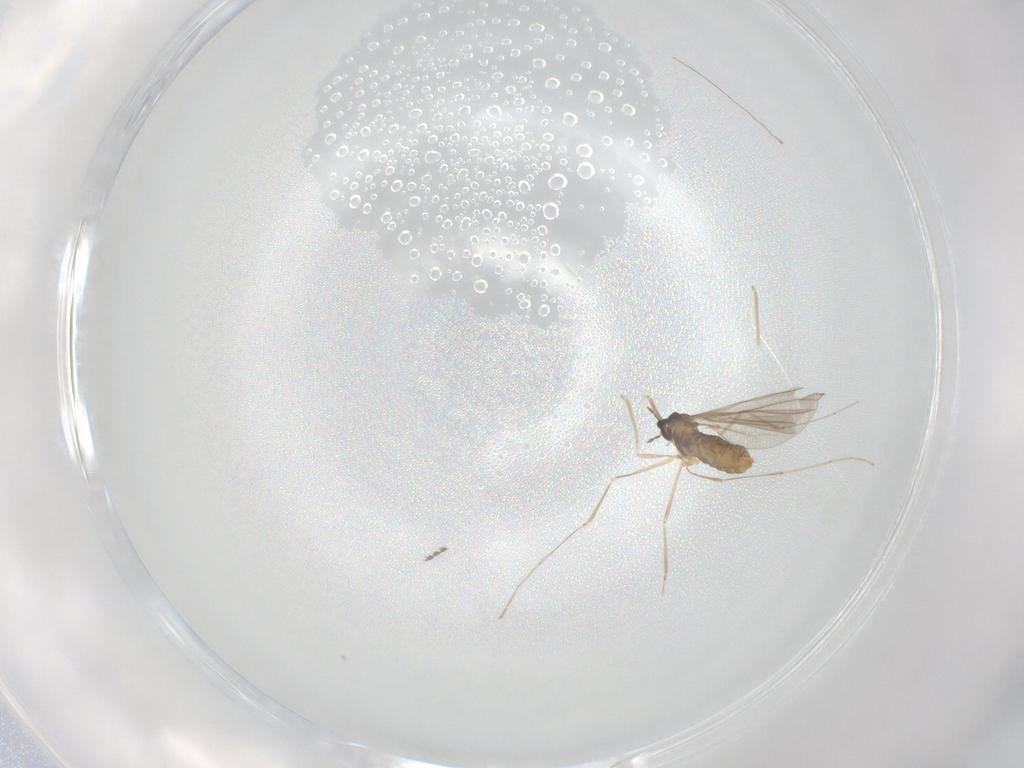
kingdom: Animalia
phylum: Arthropoda
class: Insecta
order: Diptera
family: Cecidomyiidae
